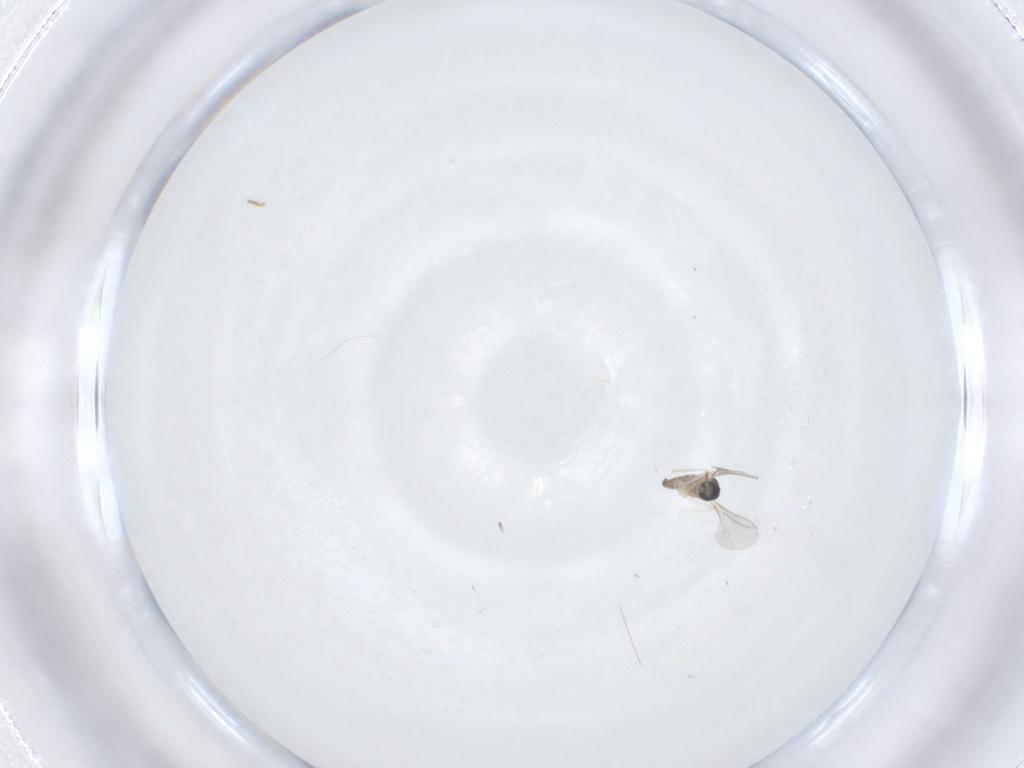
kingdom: Animalia
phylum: Arthropoda
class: Insecta
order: Diptera
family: Cecidomyiidae
